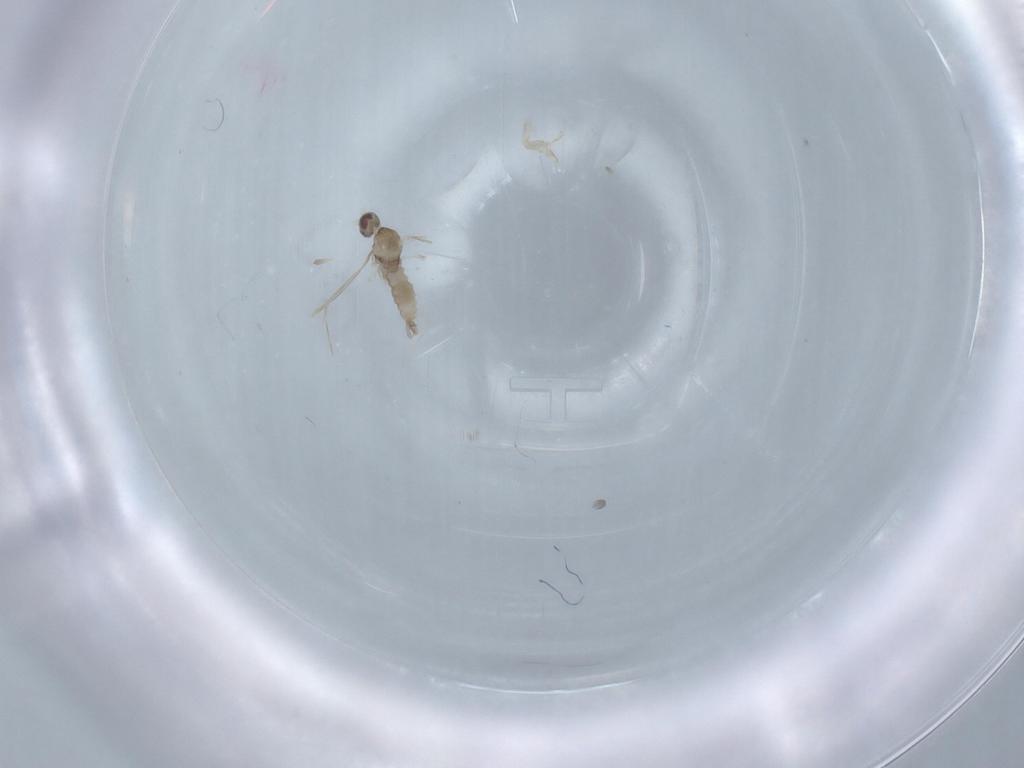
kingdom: Animalia
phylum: Arthropoda
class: Insecta
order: Diptera
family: Cecidomyiidae
